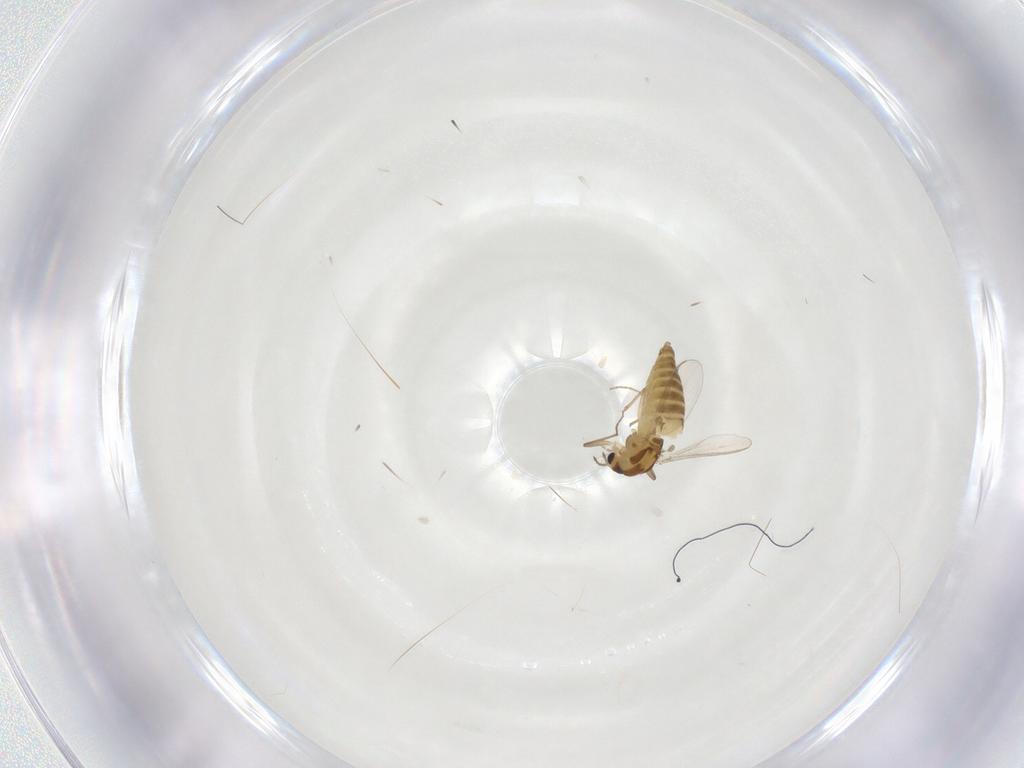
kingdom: Animalia
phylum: Arthropoda
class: Insecta
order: Diptera
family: Chironomidae
